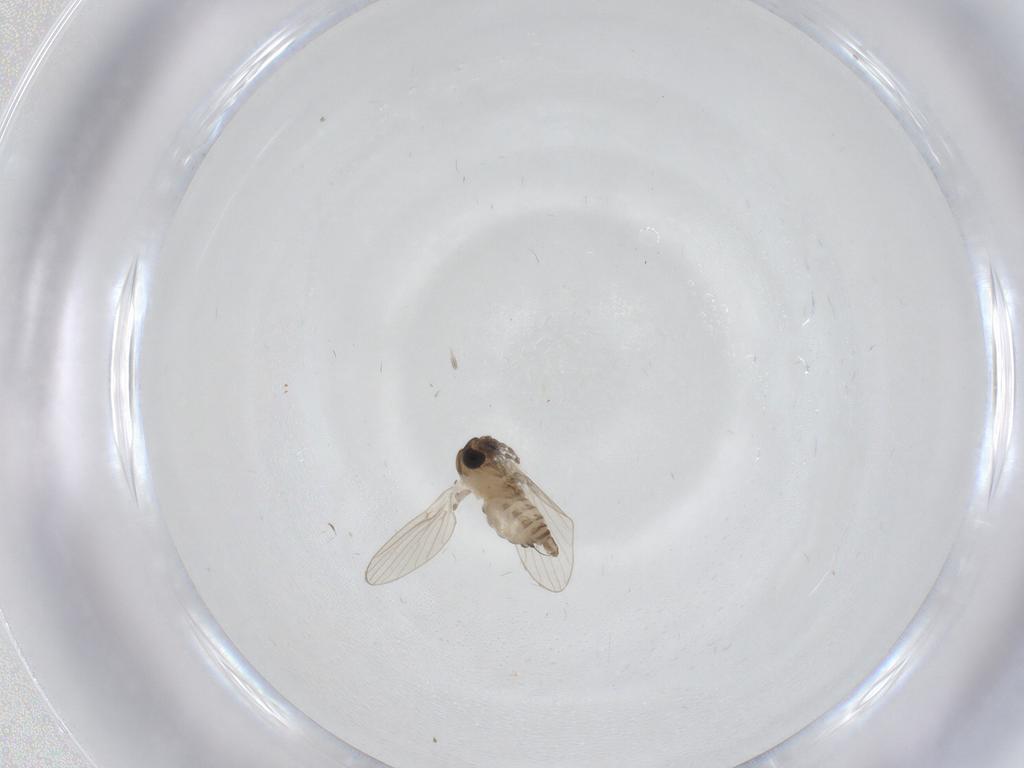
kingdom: Animalia
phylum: Arthropoda
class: Insecta
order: Diptera
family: Ceratopogonidae
